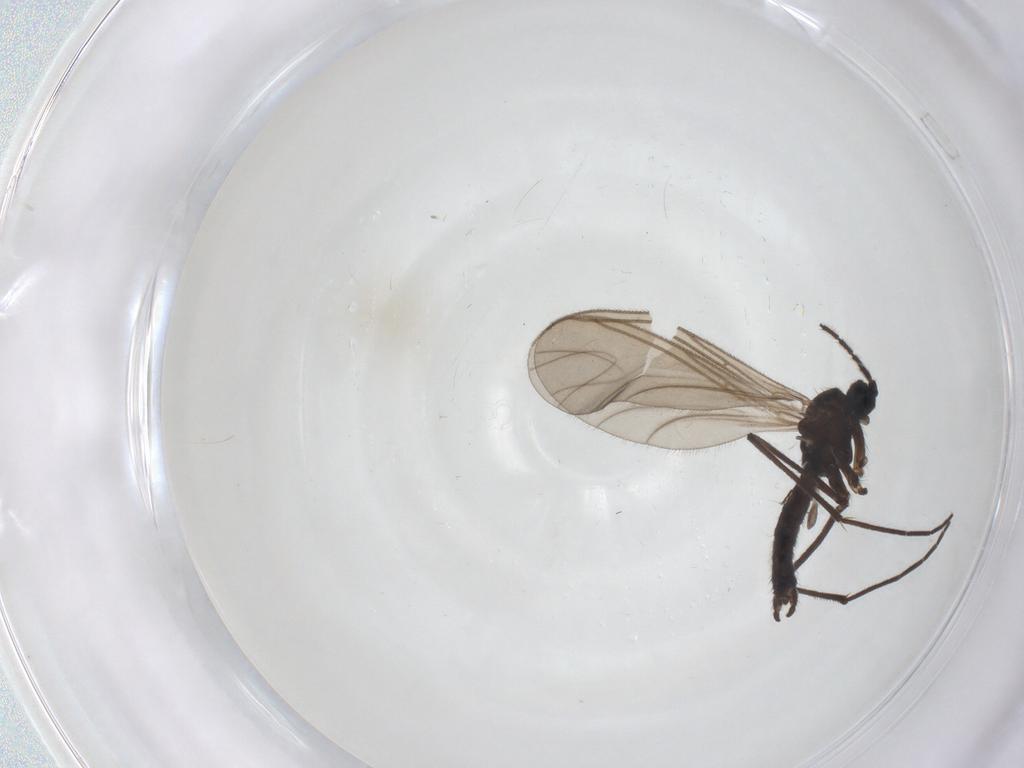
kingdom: Animalia
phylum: Arthropoda
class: Insecta
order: Diptera
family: Sciaridae
